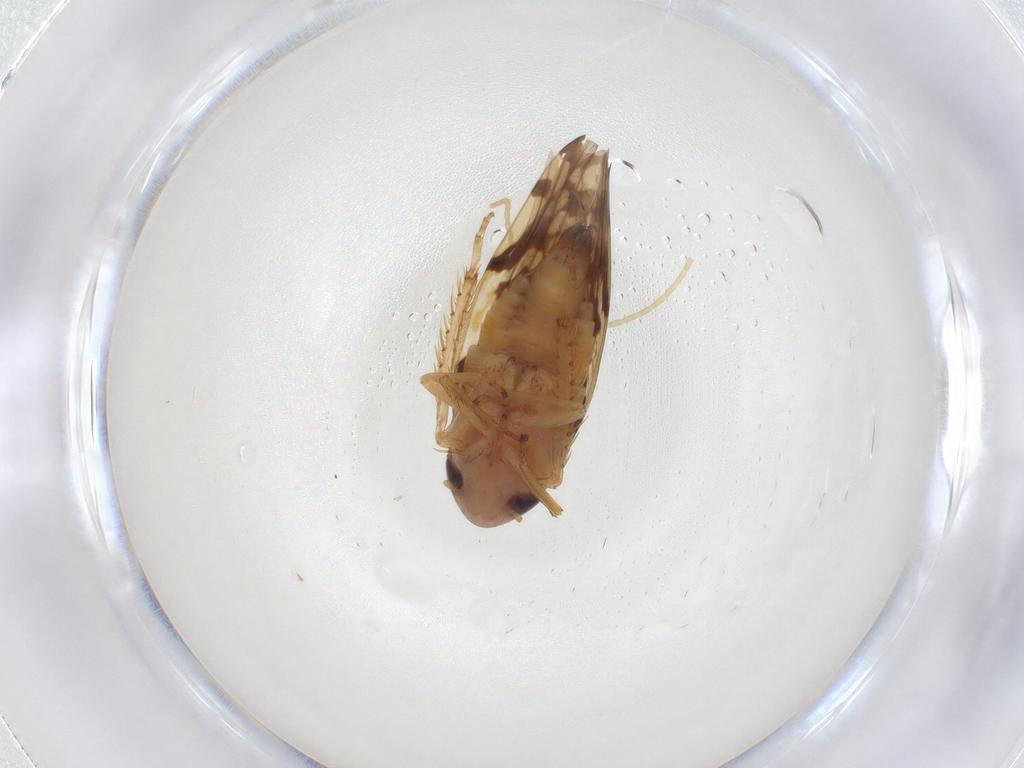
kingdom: Animalia
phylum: Arthropoda
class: Insecta
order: Hemiptera
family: Cicadellidae
